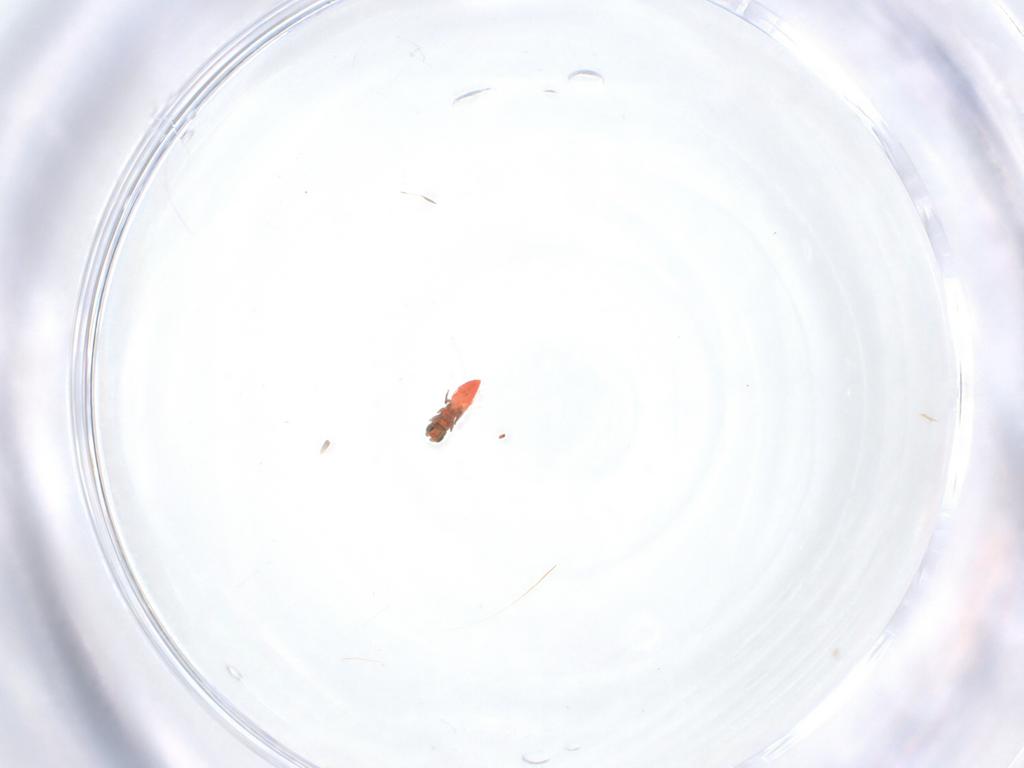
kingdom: Animalia
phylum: Arthropoda
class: Insecta
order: Hymenoptera
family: Trichogrammatidae
